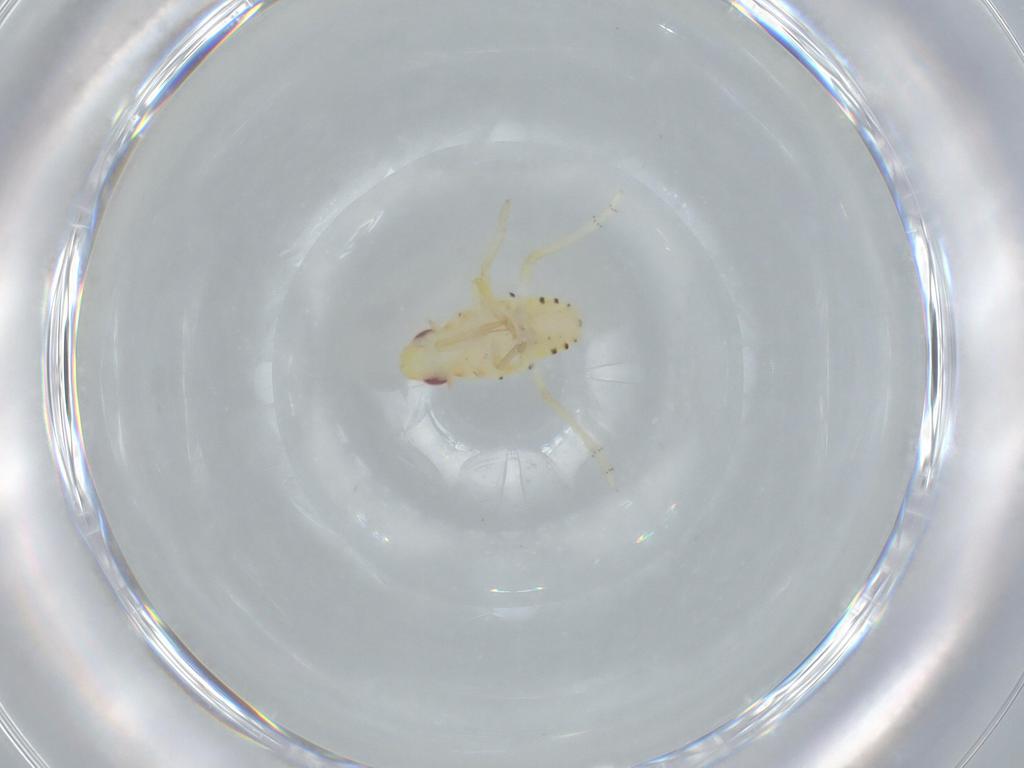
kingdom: Animalia
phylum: Arthropoda
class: Insecta
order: Hemiptera
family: Tropiduchidae
